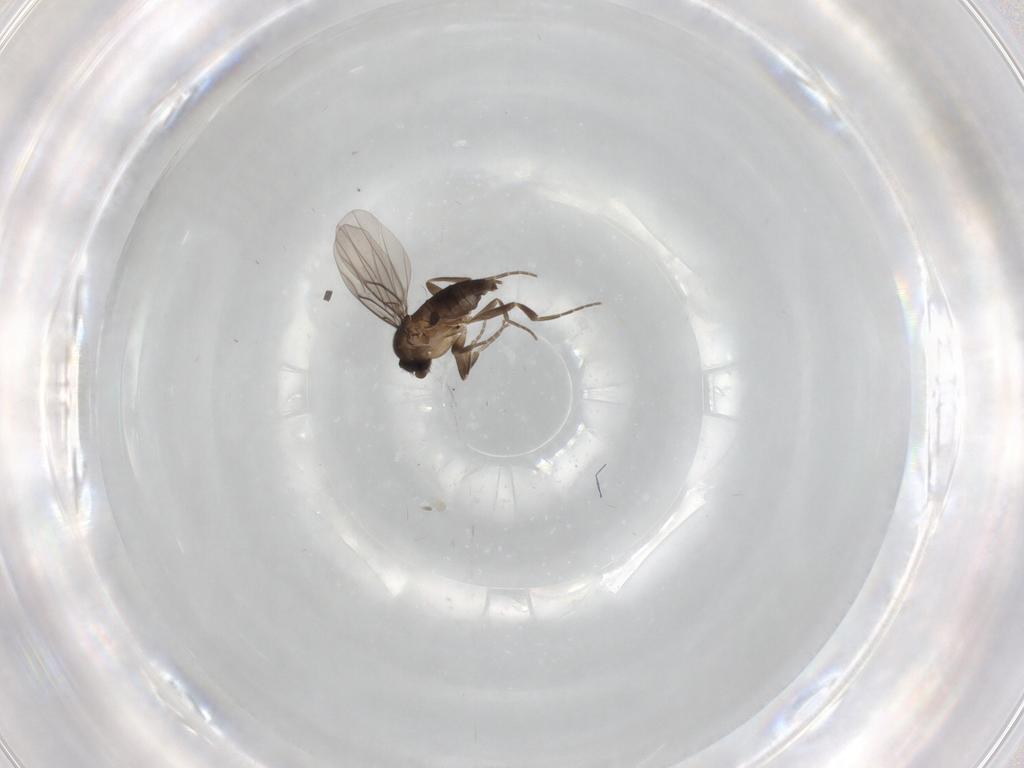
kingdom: Animalia
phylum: Arthropoda
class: Insecta
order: Diptera
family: Phoridae
